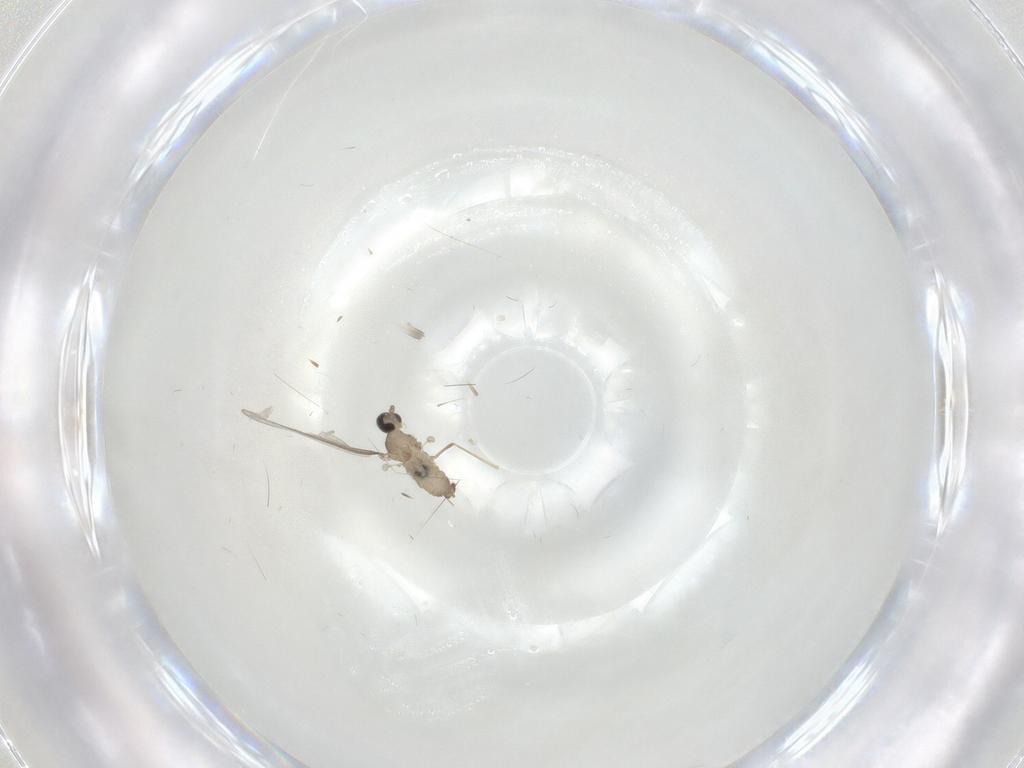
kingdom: Animalia
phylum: Arthropoda
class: Insecta
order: Diptera
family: Cecidomyiidae
